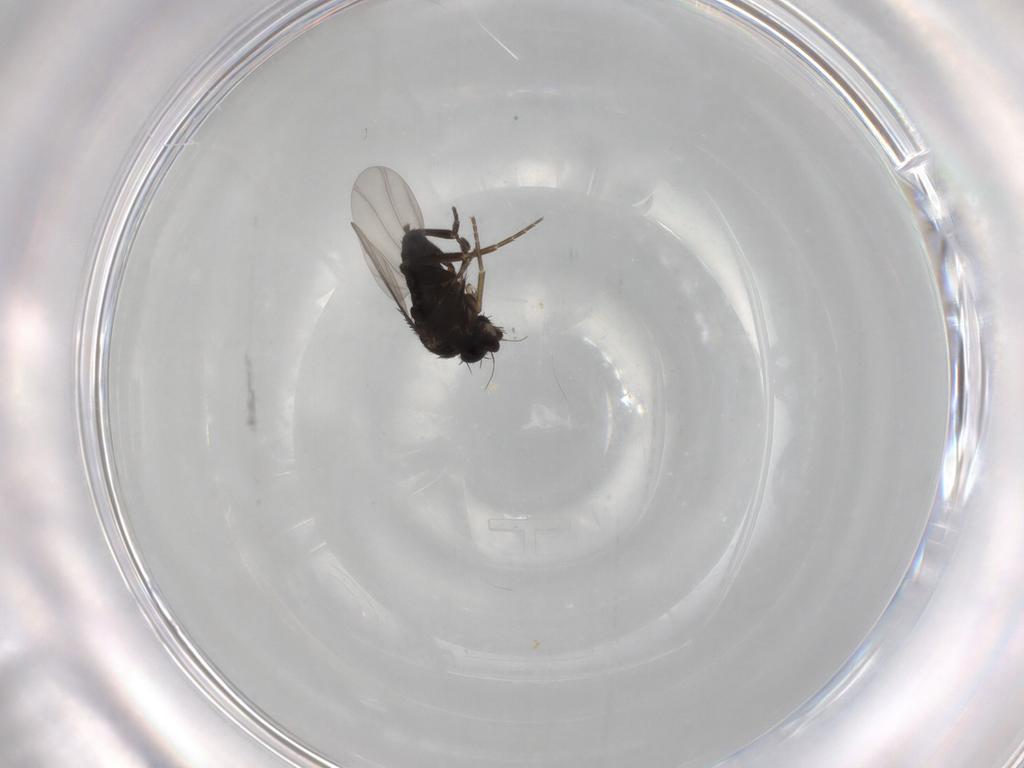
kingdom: Animalia
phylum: Arthropoda
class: Insecta
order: Diptera
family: Phoridae
